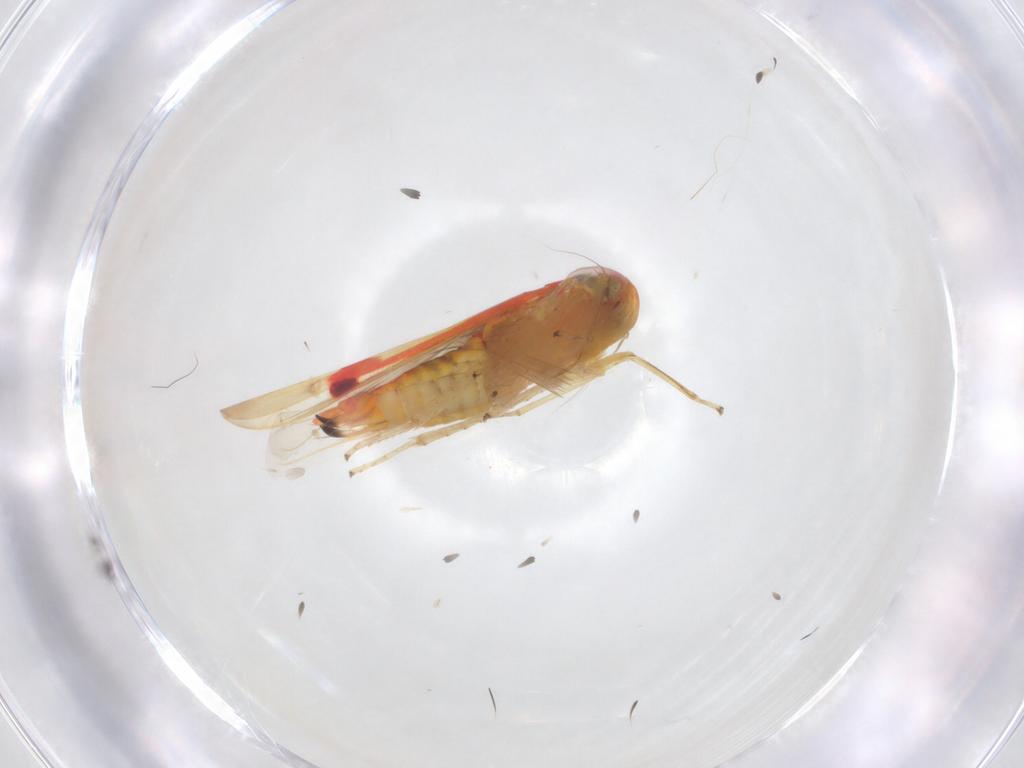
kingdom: Animalia
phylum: Arthropoda
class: Insecta
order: Hemiptera
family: Cicadellidae
